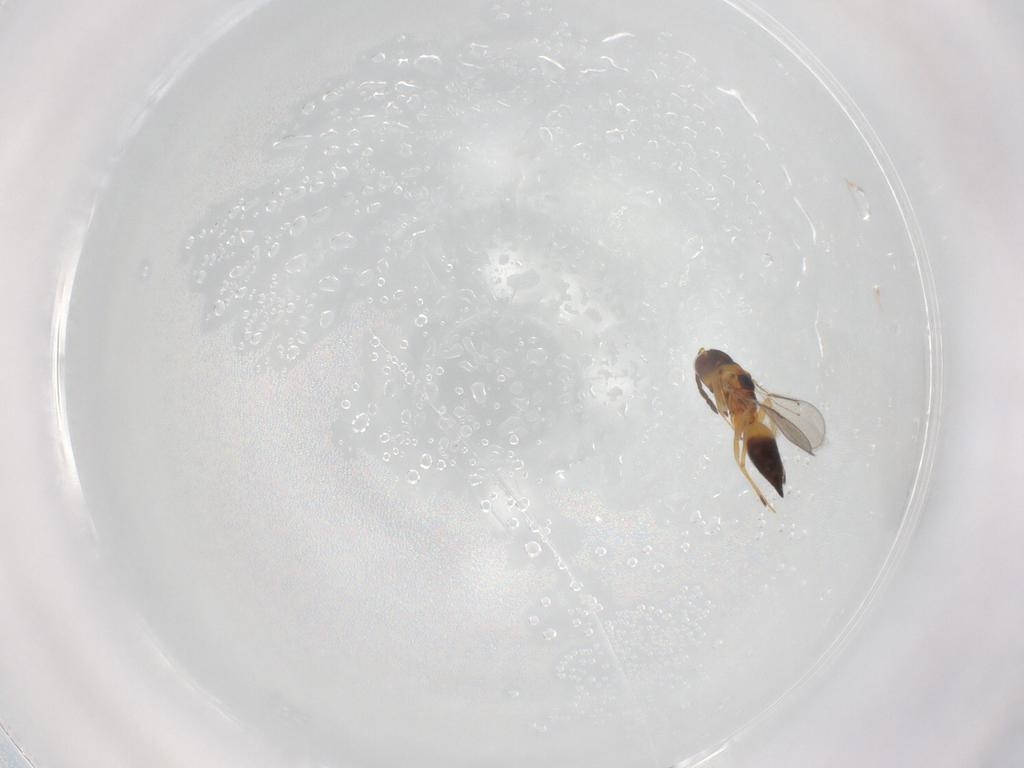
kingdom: Animalia
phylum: Arthropoda
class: Insecta
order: Hymenoptera
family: Eulophidae
